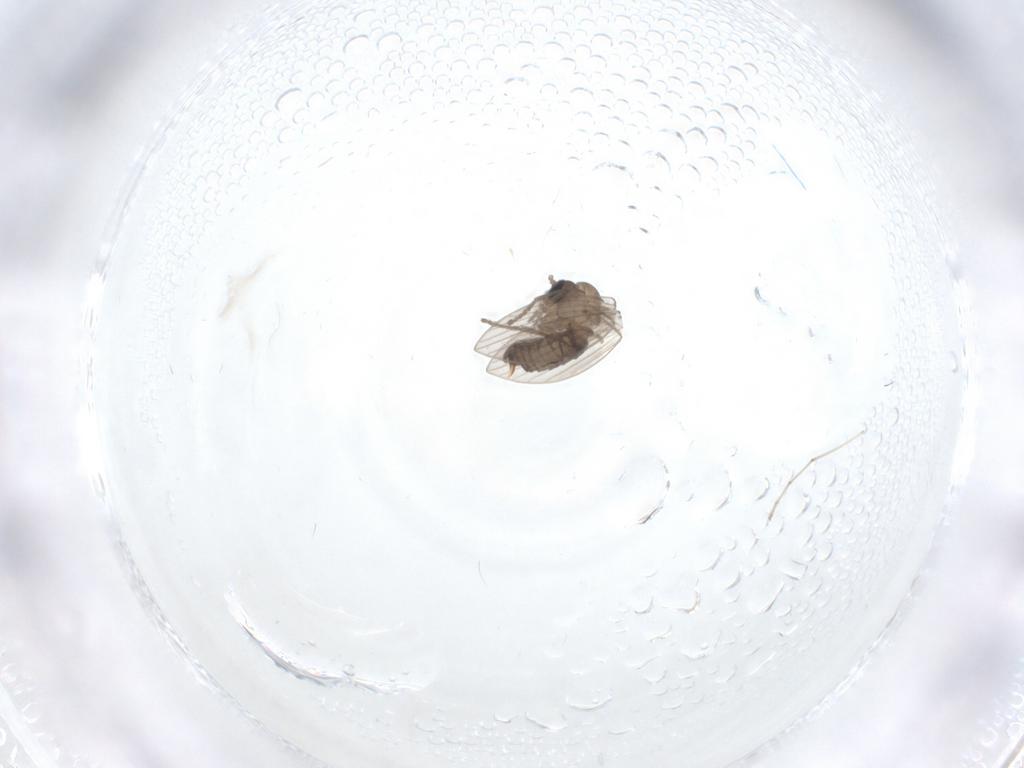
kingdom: Animalia
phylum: Arthropoda
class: Insecta
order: Diptera
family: Psychodidae
